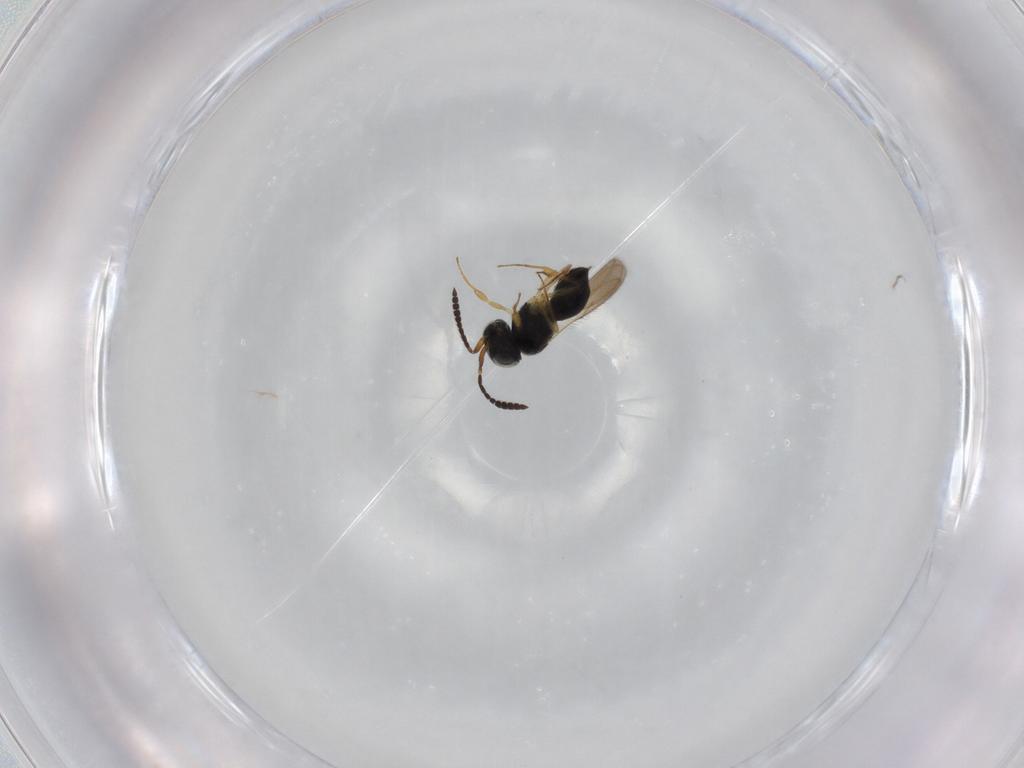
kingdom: Animalia
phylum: Arthropoda
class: Insecta
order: Hymenoptera
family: Scelionidae
